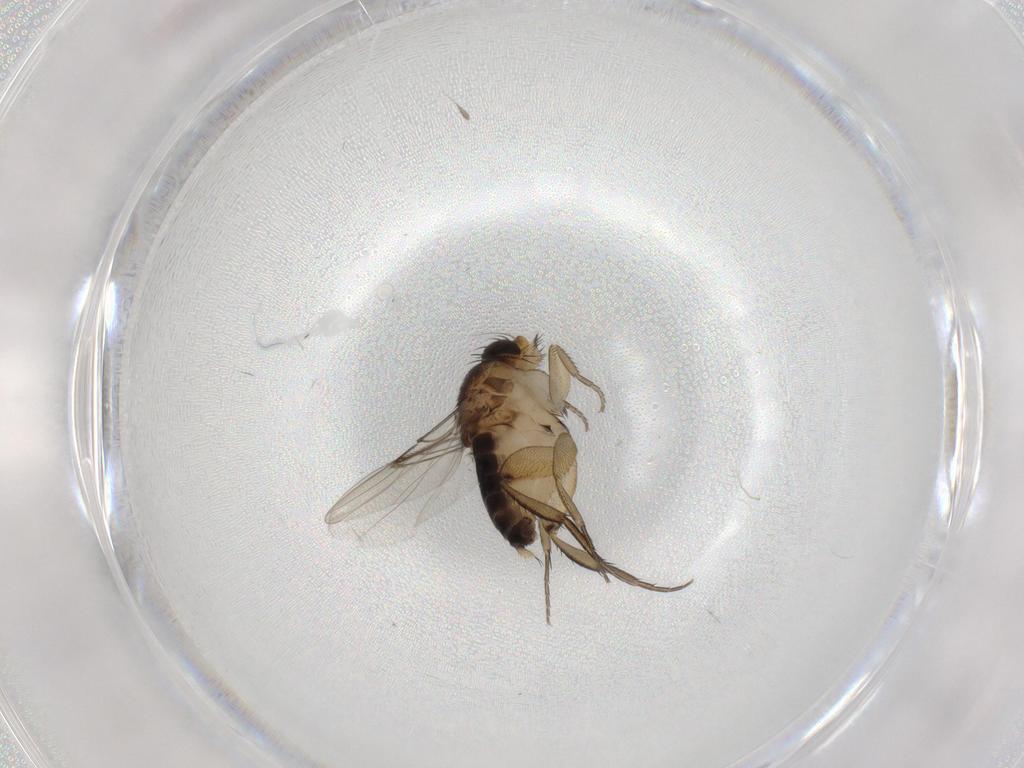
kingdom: Animalia
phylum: Arthropoda
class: Insecta
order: Diptera
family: Phoridae
